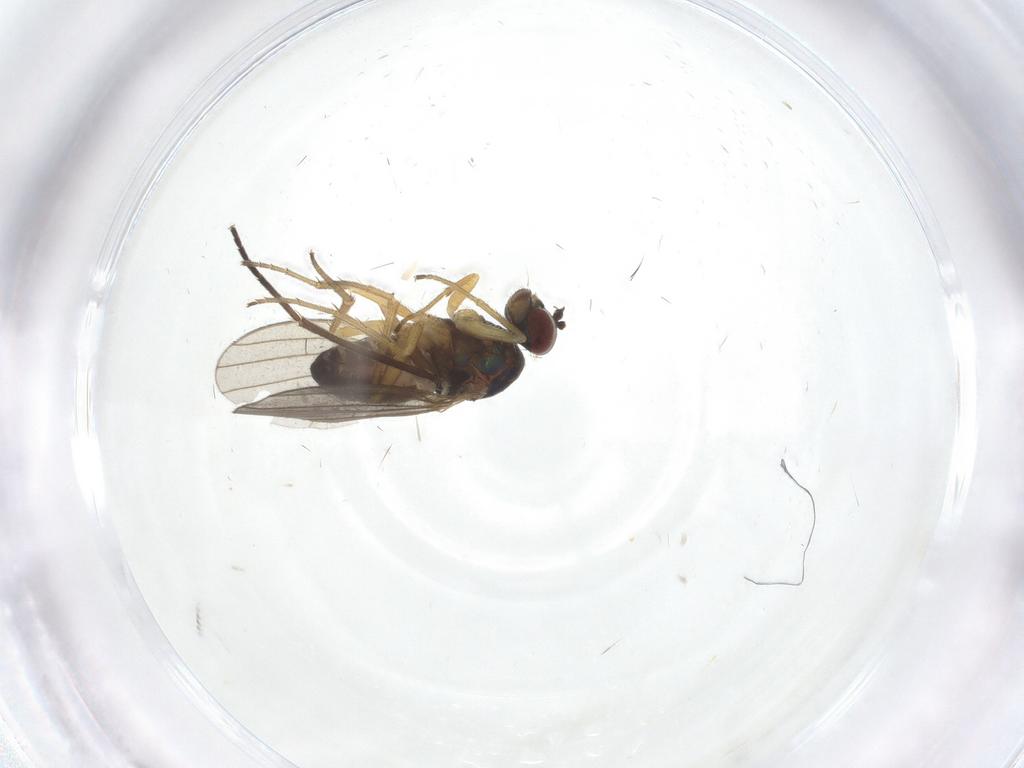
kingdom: Animalia
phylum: Arthropoda
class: Insecta
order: Diptera
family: Dolichopodidae
